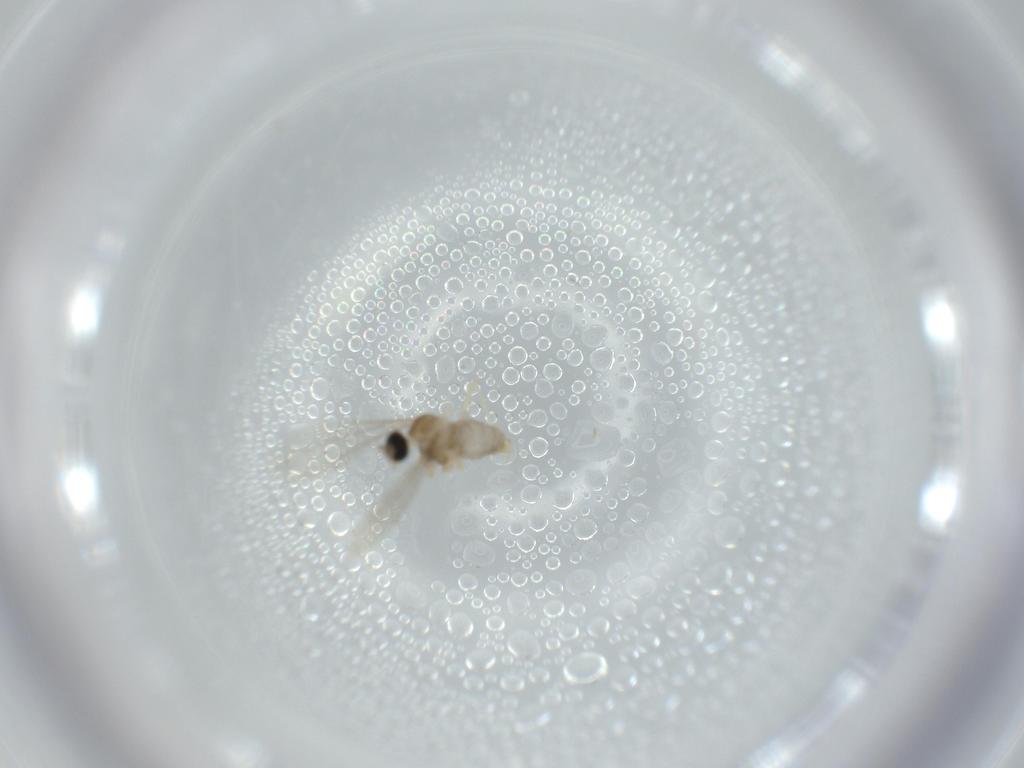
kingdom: Animalia
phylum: Arthropoda
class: Insecta
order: Diptera
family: Cecidomyiidae
